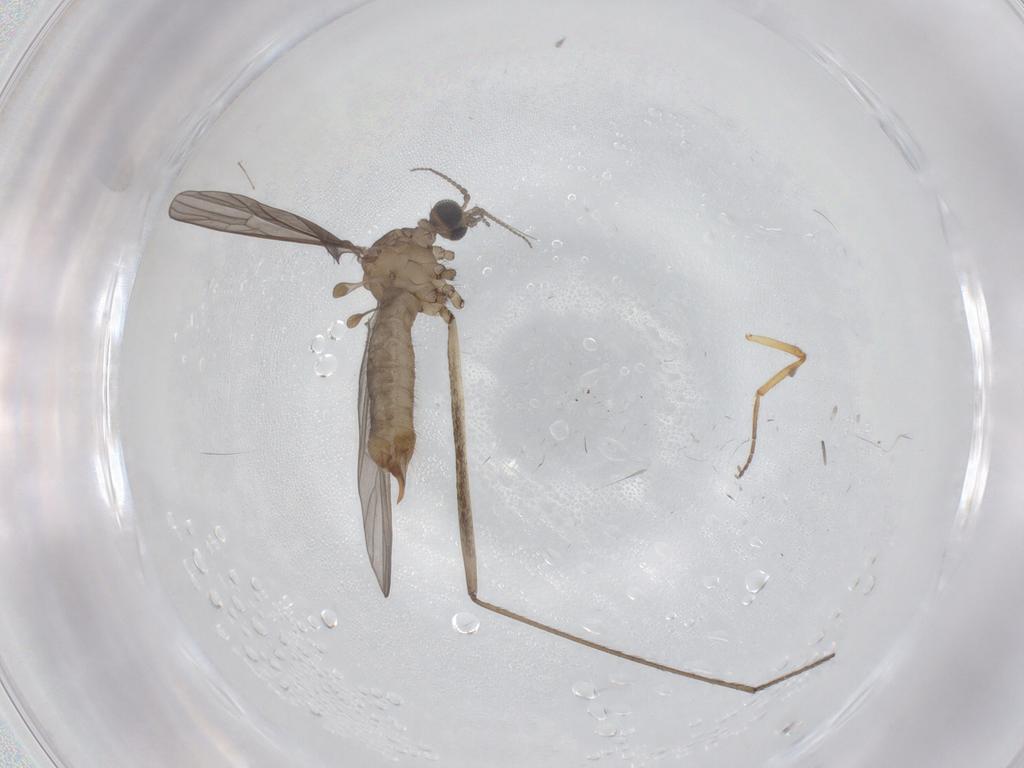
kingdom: Animalia
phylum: Arthropoda
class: Insecta
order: Diptera
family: Limoniidae
